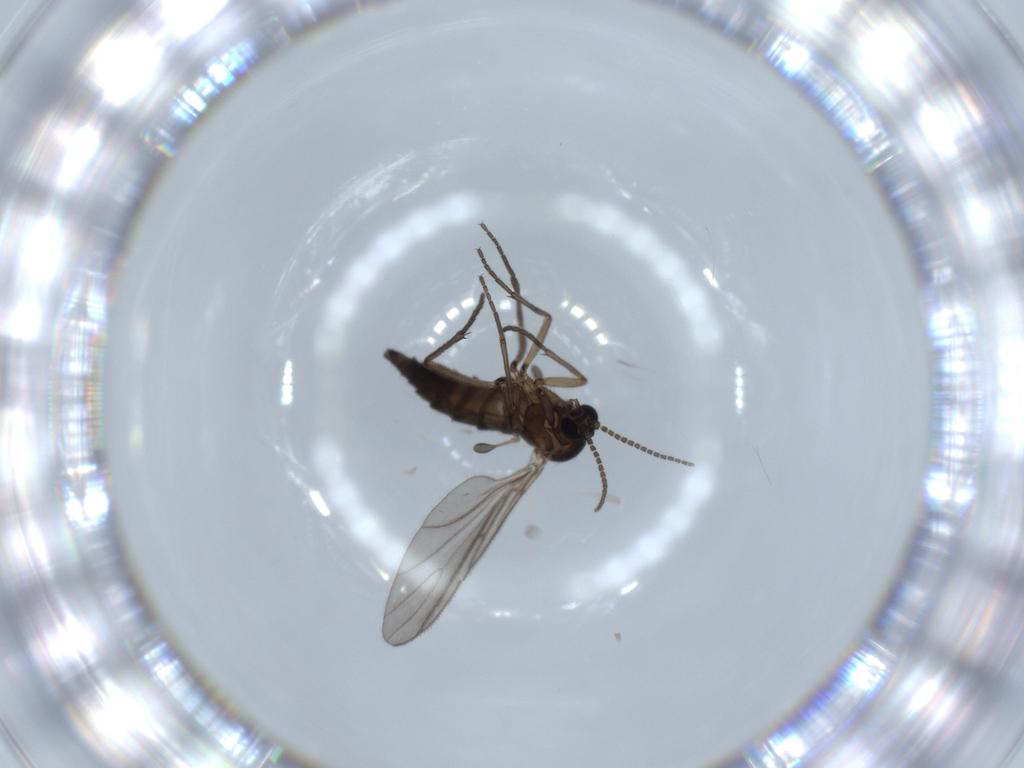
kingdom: Animalia
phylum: Arthropoda
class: Insecta
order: Diptera
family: Sciaridae
